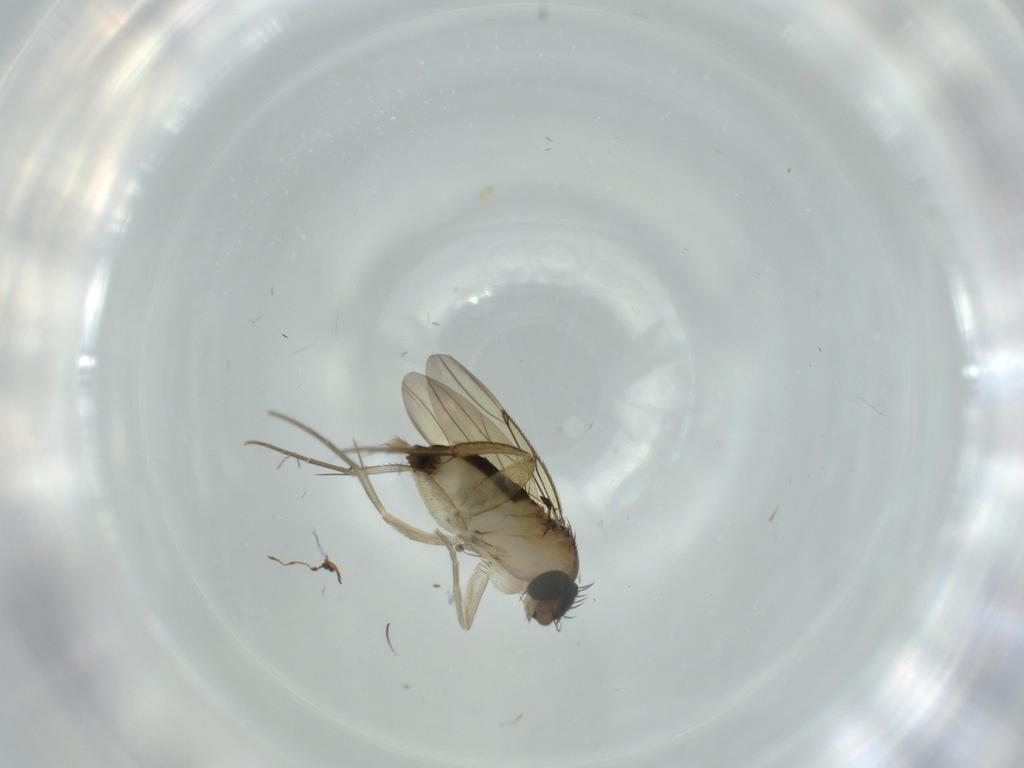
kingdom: Animalia
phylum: Arthropoda
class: Insecta
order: Diptera
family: Phoridae
